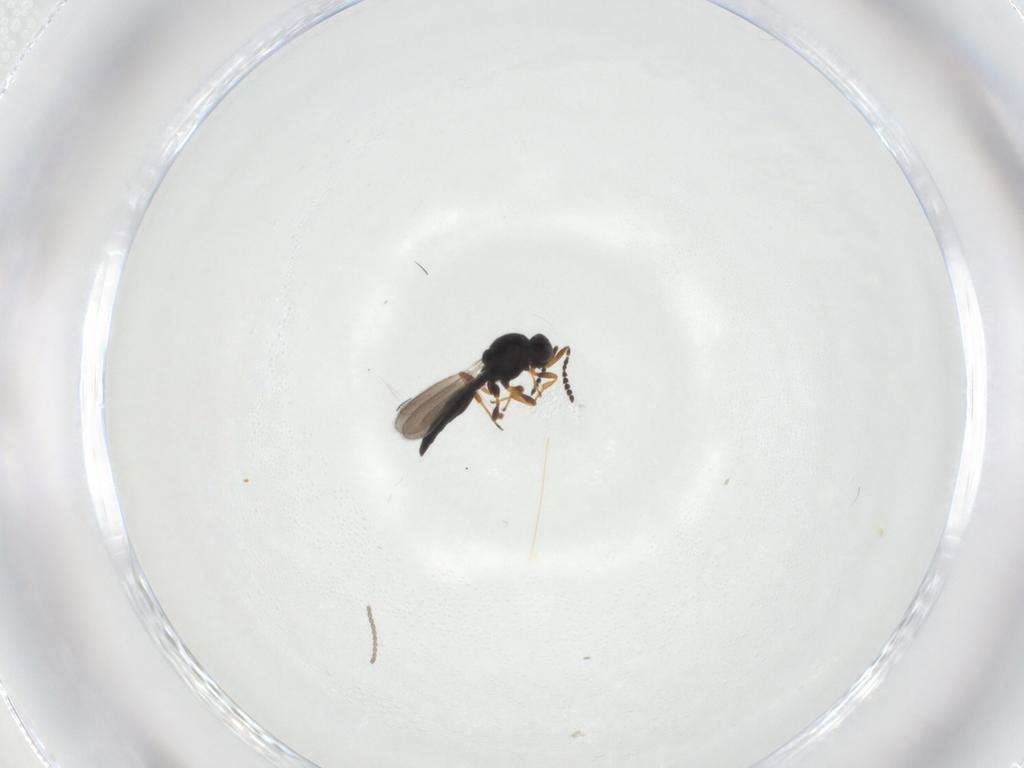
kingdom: Animalia
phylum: Arthropoda
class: Insecta
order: Hymenoptera
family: Platygastridae
